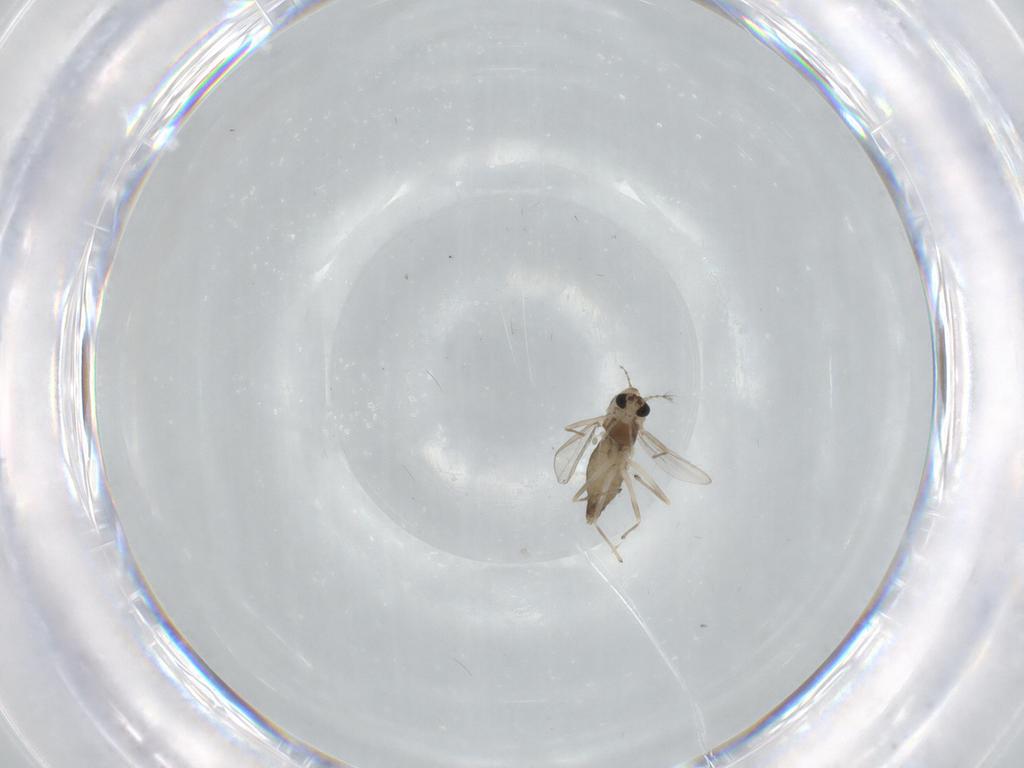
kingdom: Animalia
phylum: Arthropoda
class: Insecta
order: Diptera
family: Chironomidae
